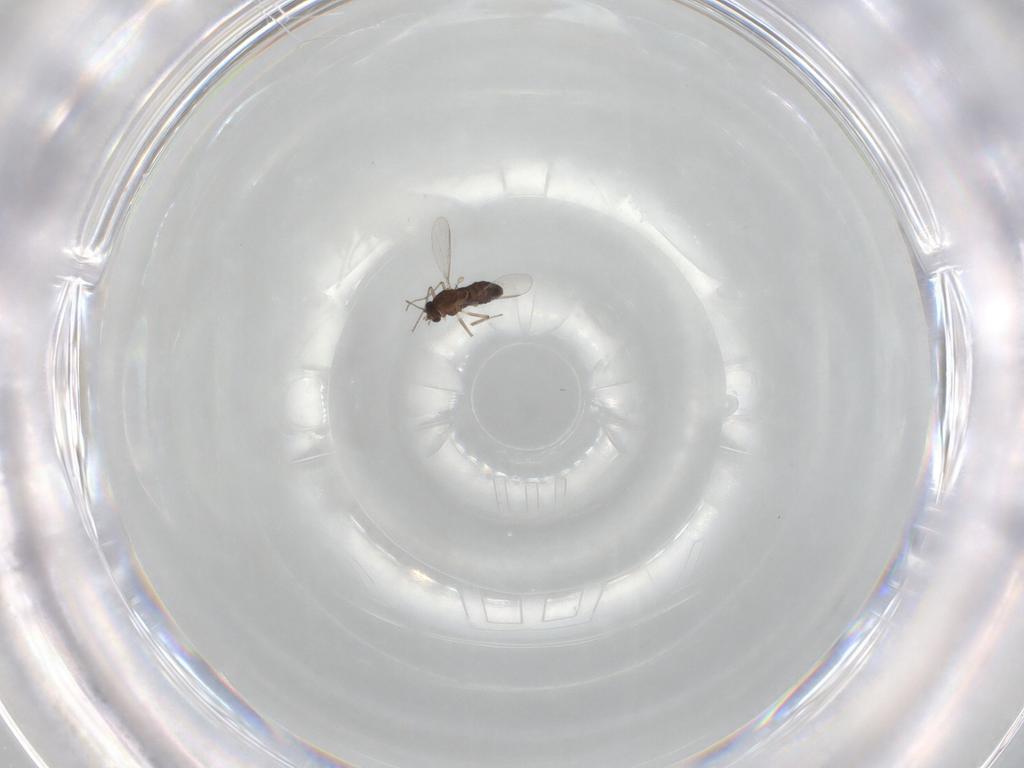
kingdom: Animalia
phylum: Arthropoda
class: Insecta
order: Diptera
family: Chironomidae
